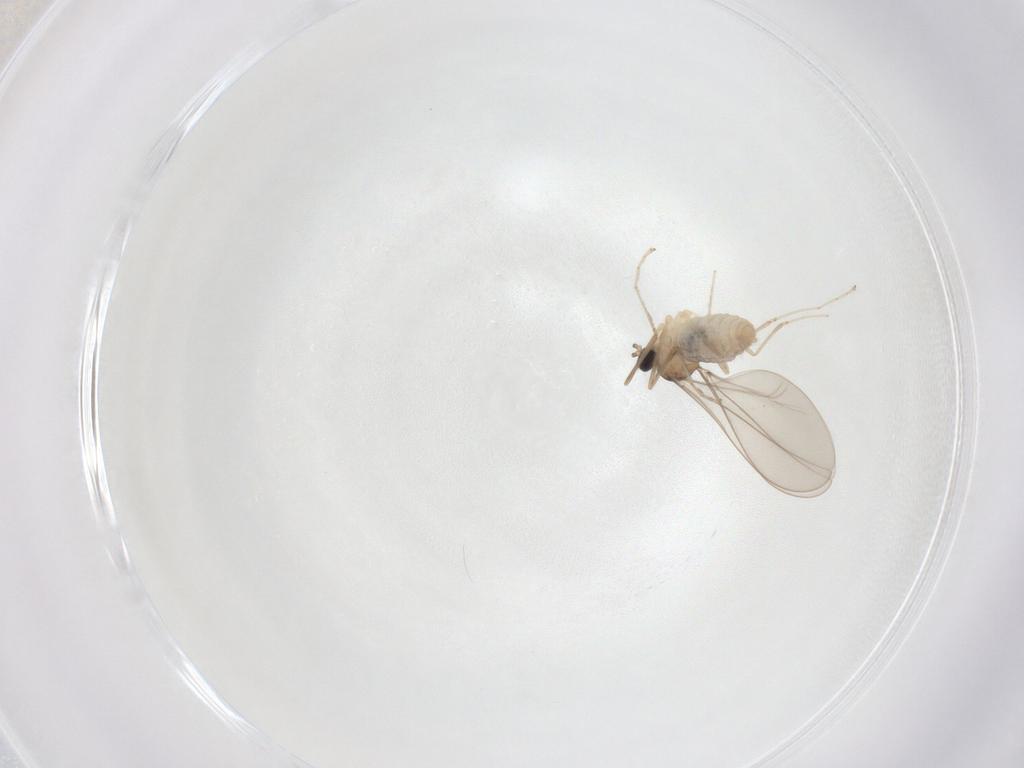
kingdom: Animalia
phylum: Arthropoda
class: Insecta
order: Diptera
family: Cecidomyiidae
